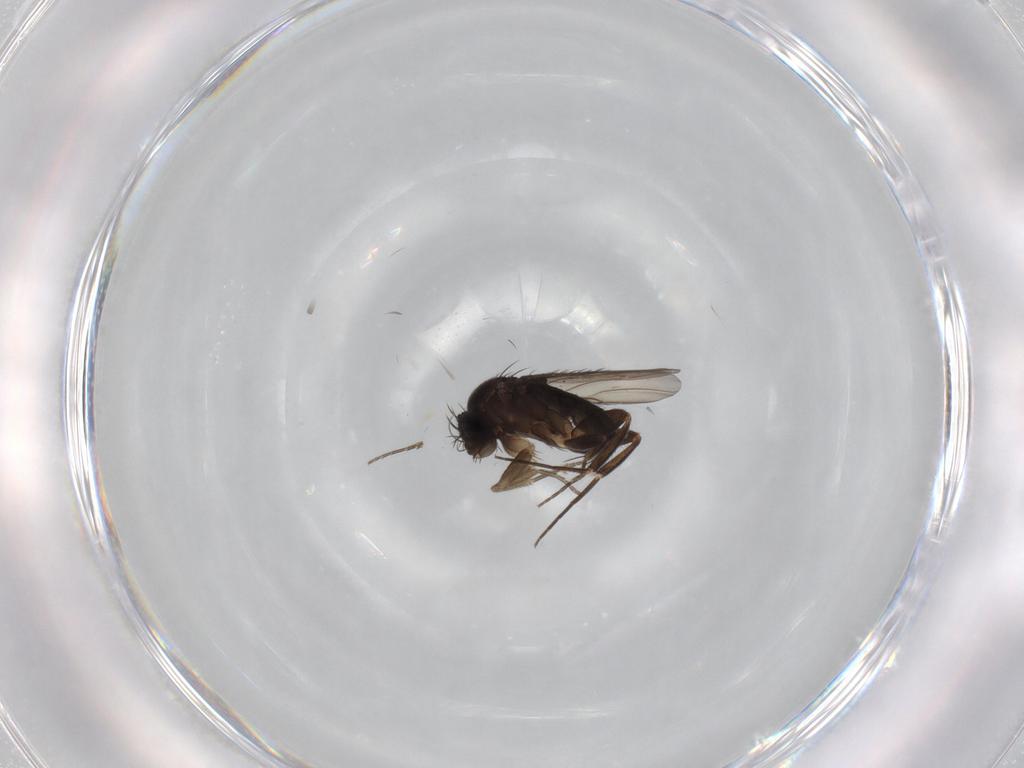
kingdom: Animalia
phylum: Arthropoda
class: Insecta
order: Diptera
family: Phoridae
